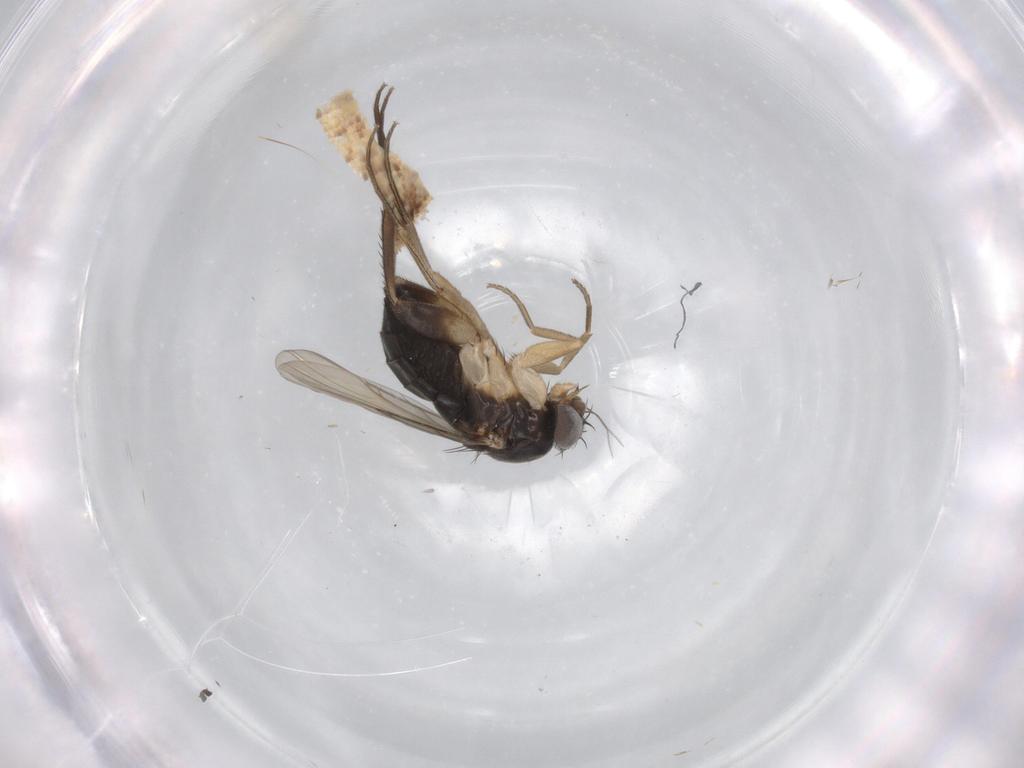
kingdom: Animalia
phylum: Arthropoda
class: Insecta
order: Diptera
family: Phoridae
